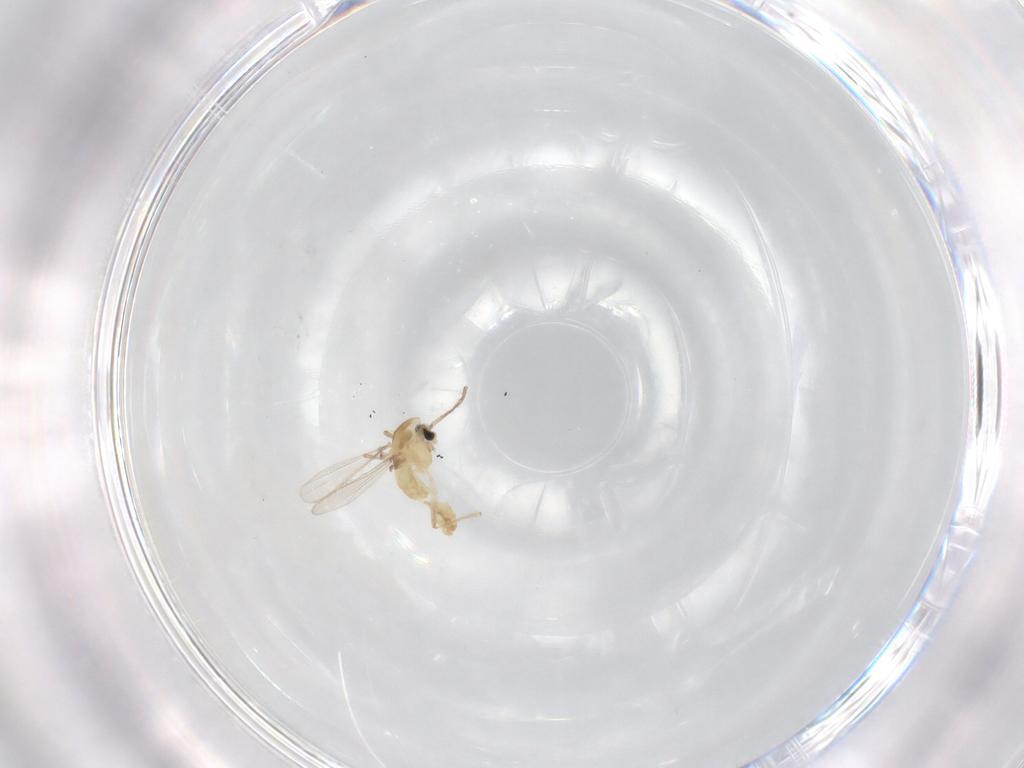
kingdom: Animalia
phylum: Arthropoda
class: Insecta
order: Diptera
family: Chironomidae
